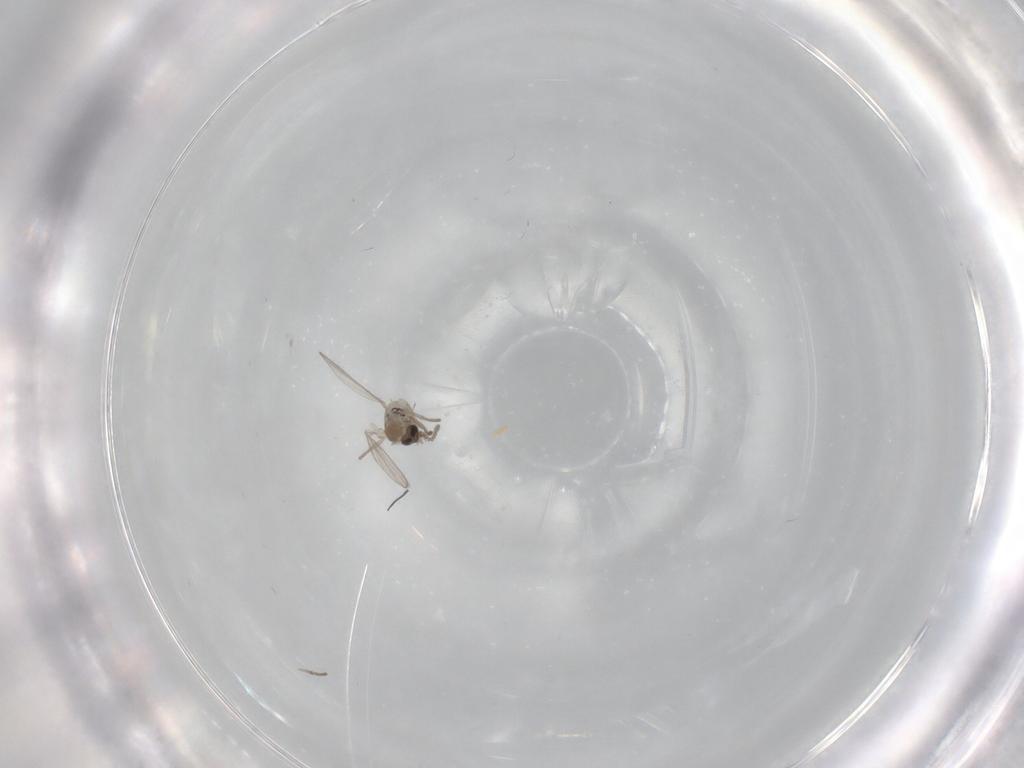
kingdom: Animalia
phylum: Arthropoda
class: Insecta
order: Diptera
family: Psychodidae
